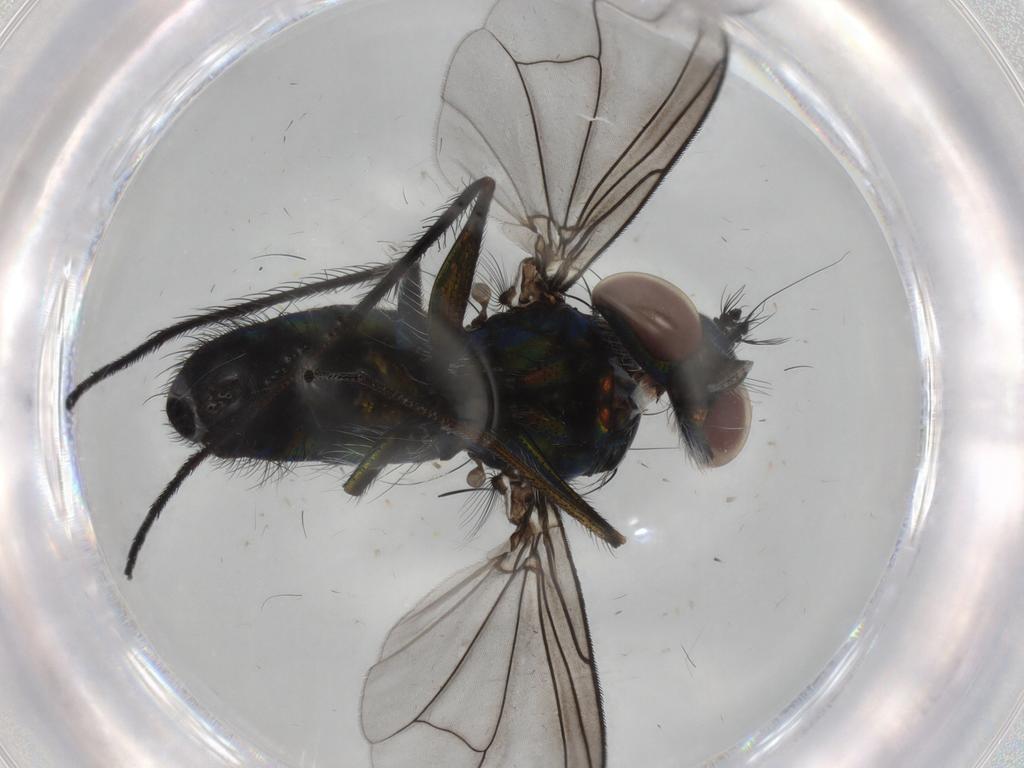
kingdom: Animalia
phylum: Arthropoda
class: Insecta
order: Diptera
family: Dolichopodidae
